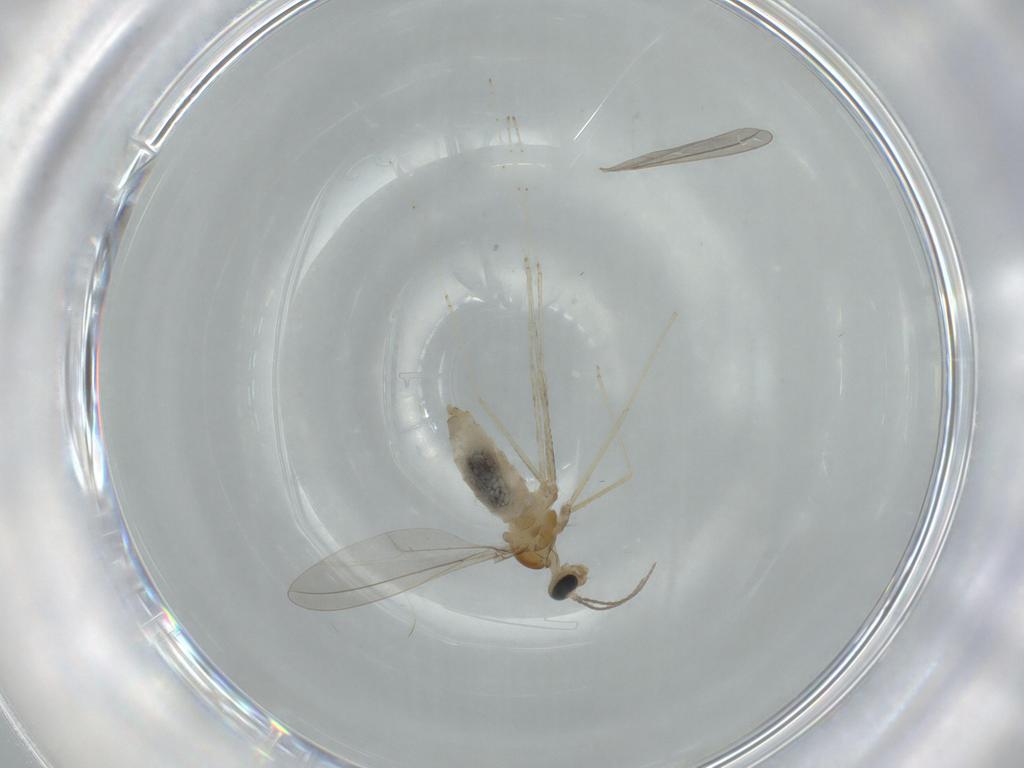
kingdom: Animalia
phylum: Arthropoda
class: Insecta
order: Diptera
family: Cecidomyiidae
